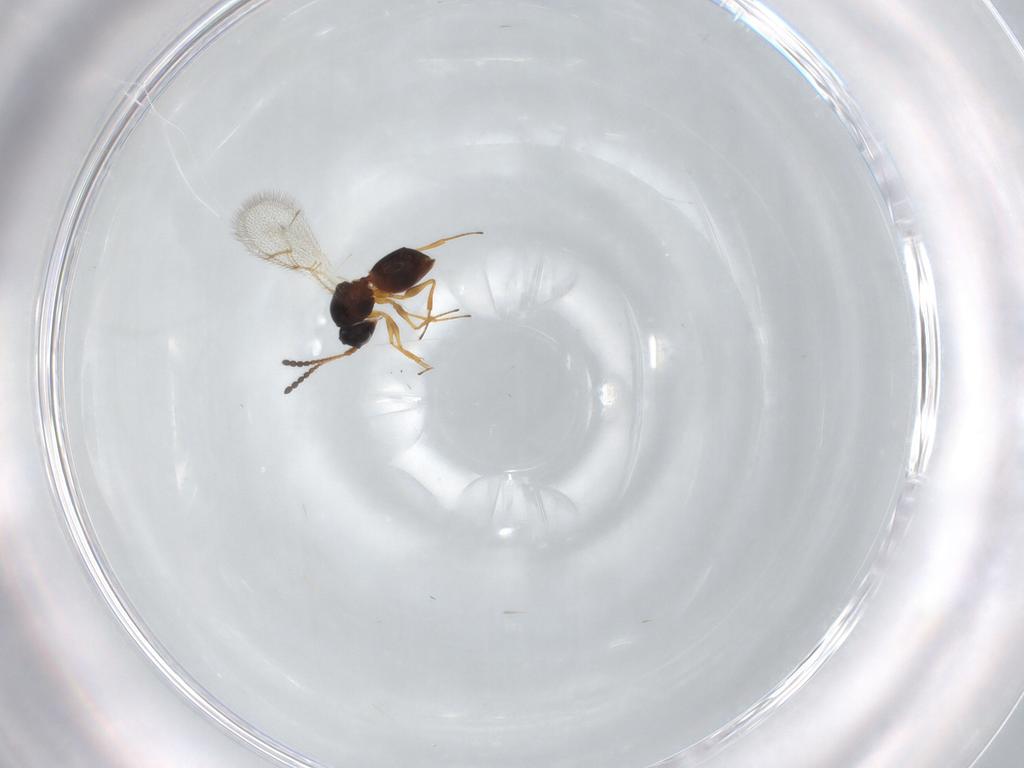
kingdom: Animalia
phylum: Arthropoda
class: Insecta
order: Hymenoptera
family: Figitidae
